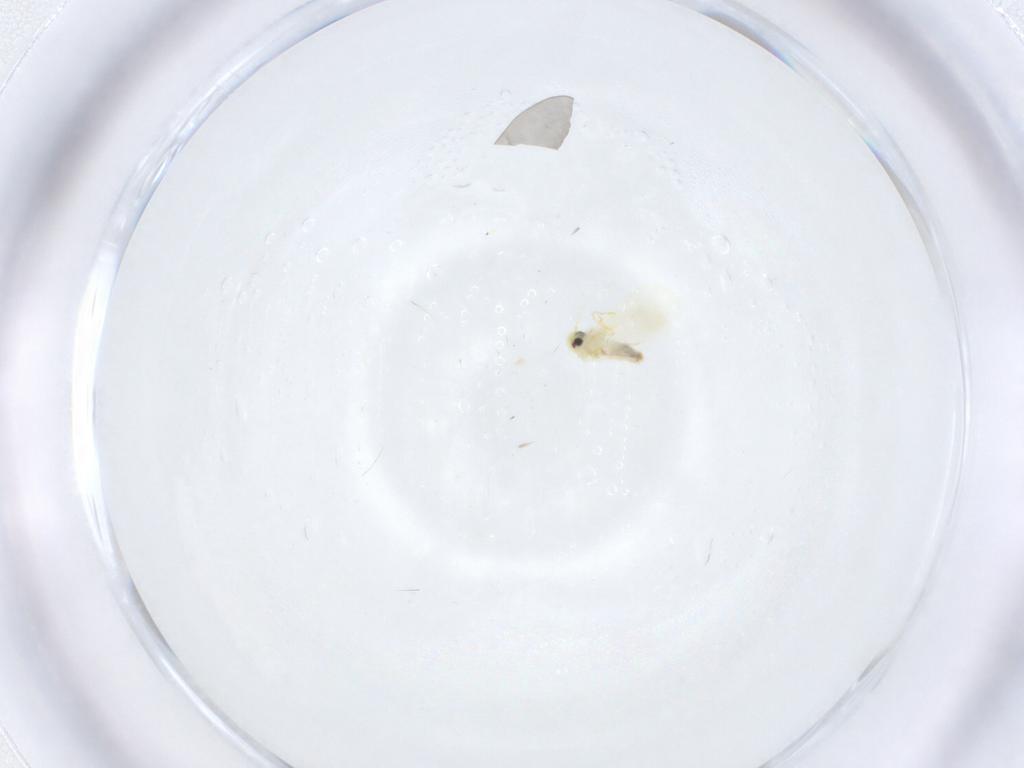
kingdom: Animalia
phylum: Arthropoda
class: Insecta
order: Hemiptera
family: Aleyrodidae
